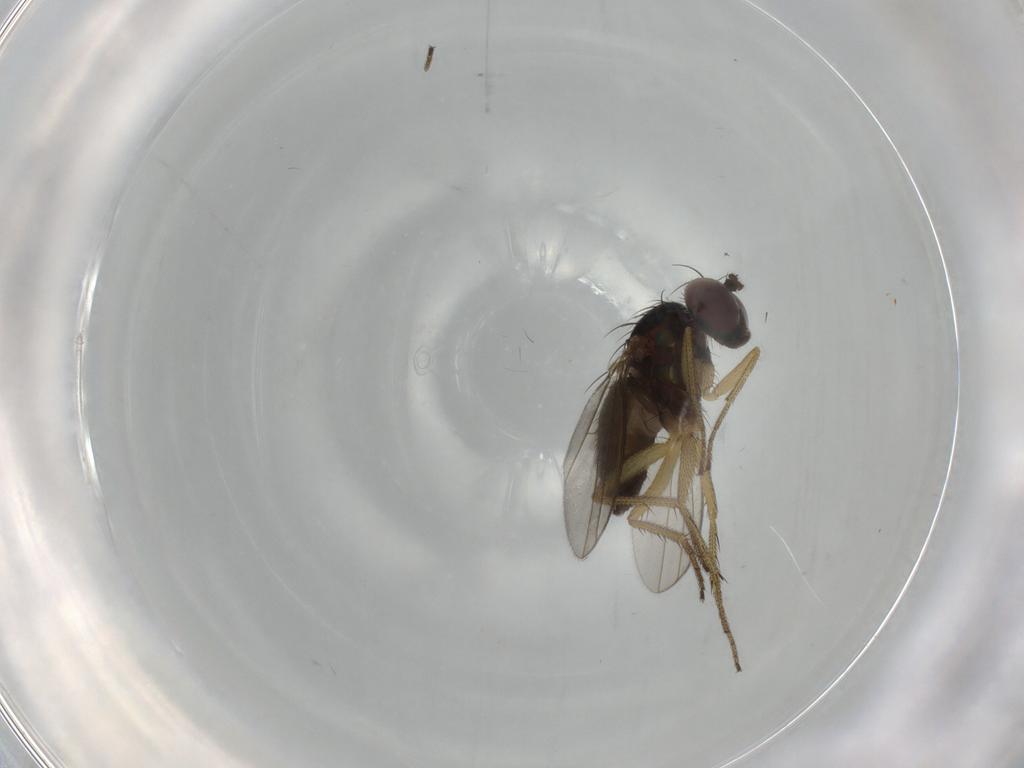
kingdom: Animalia
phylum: Arthropoda
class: Insecta
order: Diptera
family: Dolichopodidae
